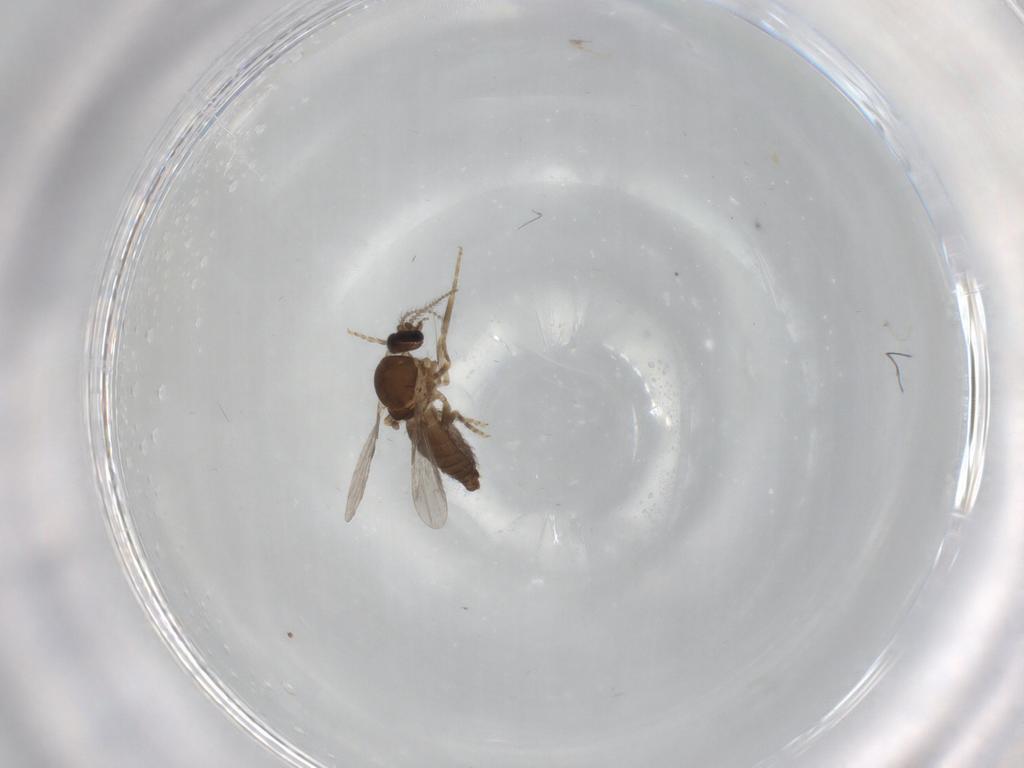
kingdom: Animalia
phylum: Arthropoda
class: Insecta
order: Diptera
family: Ceratopogonidae
